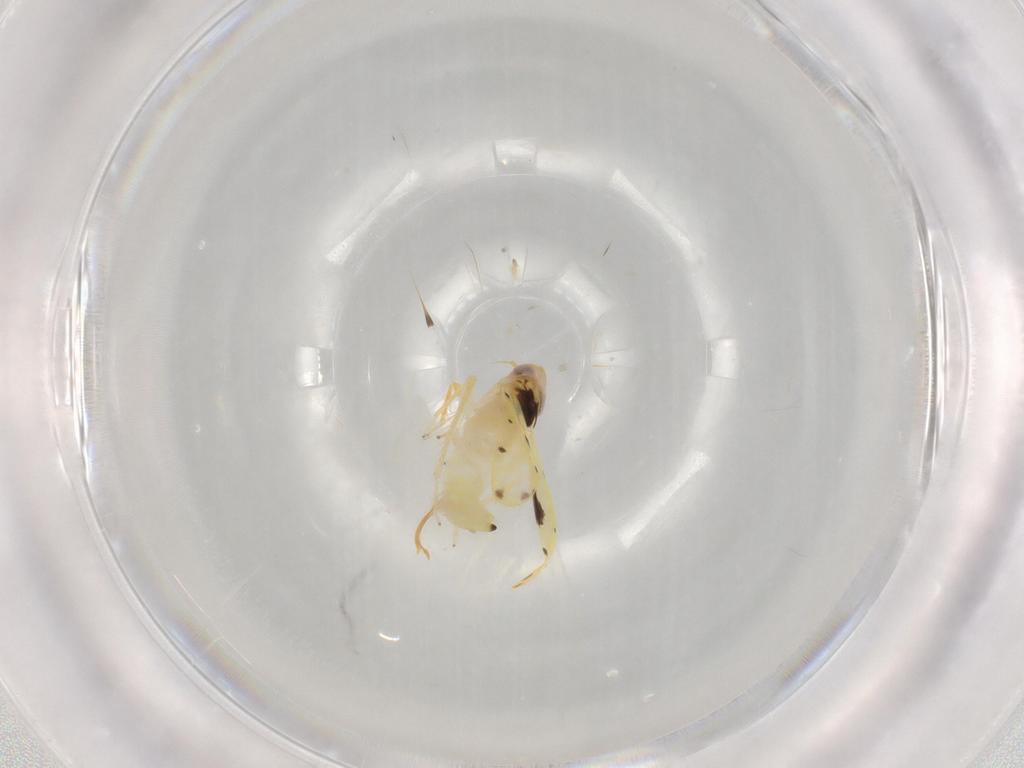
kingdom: Animalia
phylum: Arthropoda
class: Insecta
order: Hemiptera
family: Cicadellidae
